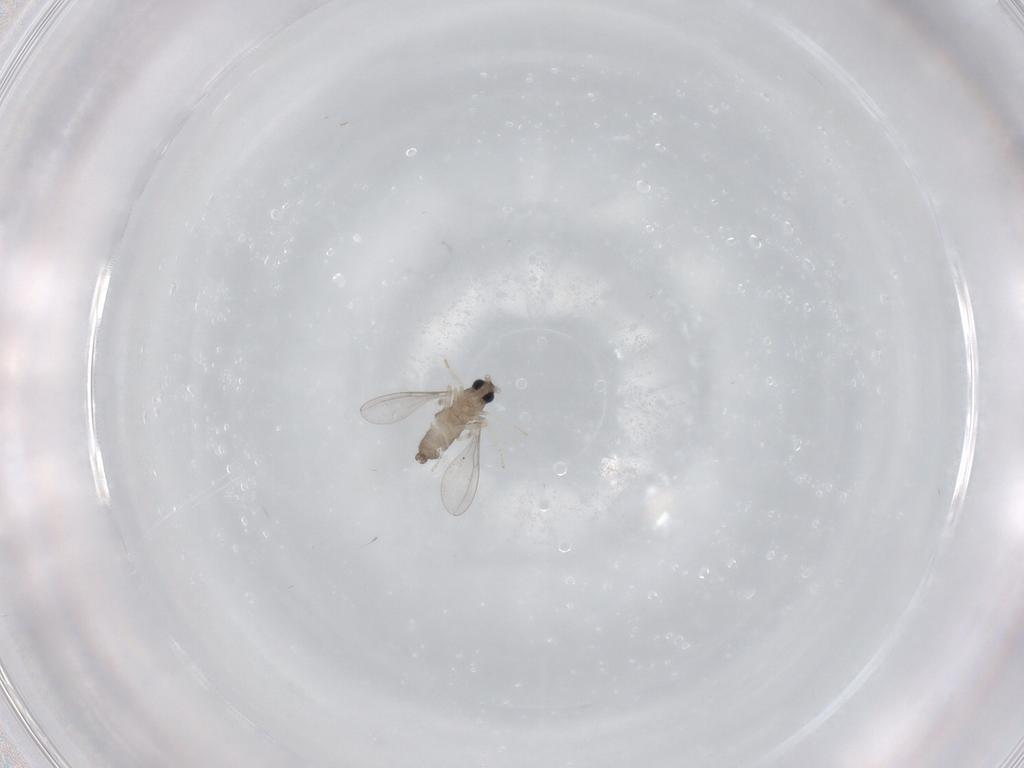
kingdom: Animalia
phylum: Arthropoda
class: Insecta
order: Diptera
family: Cecidomyiidae
